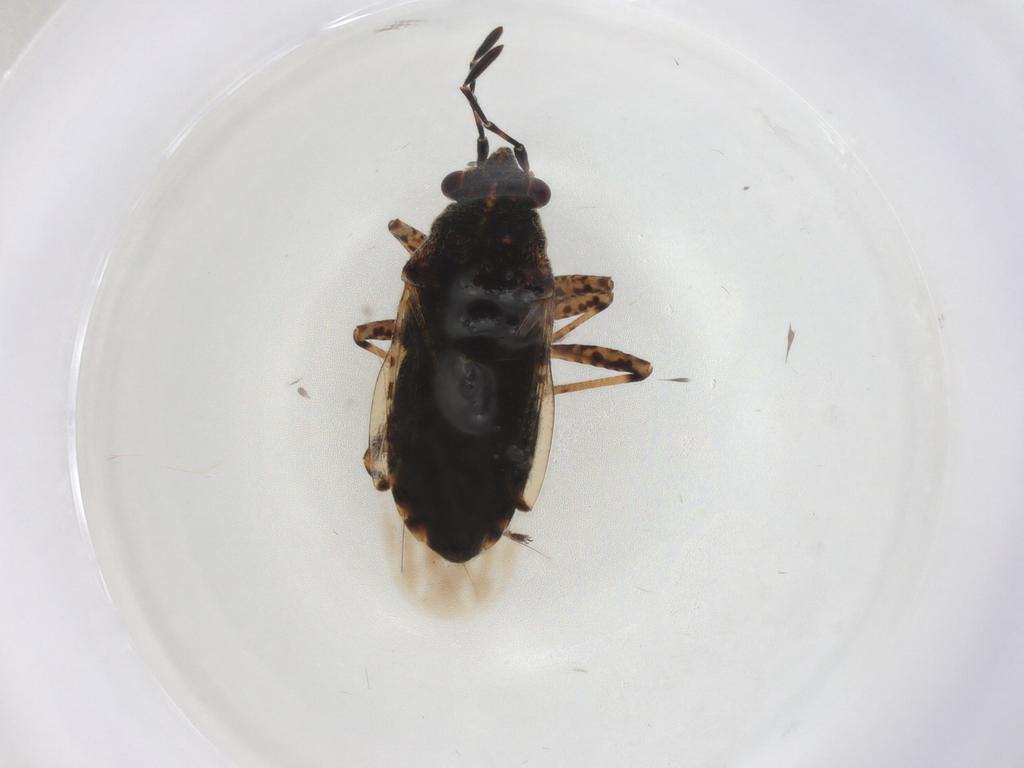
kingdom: Animalia
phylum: Arthropoda
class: Insecta
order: Hemiptera
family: Lygaeidae
